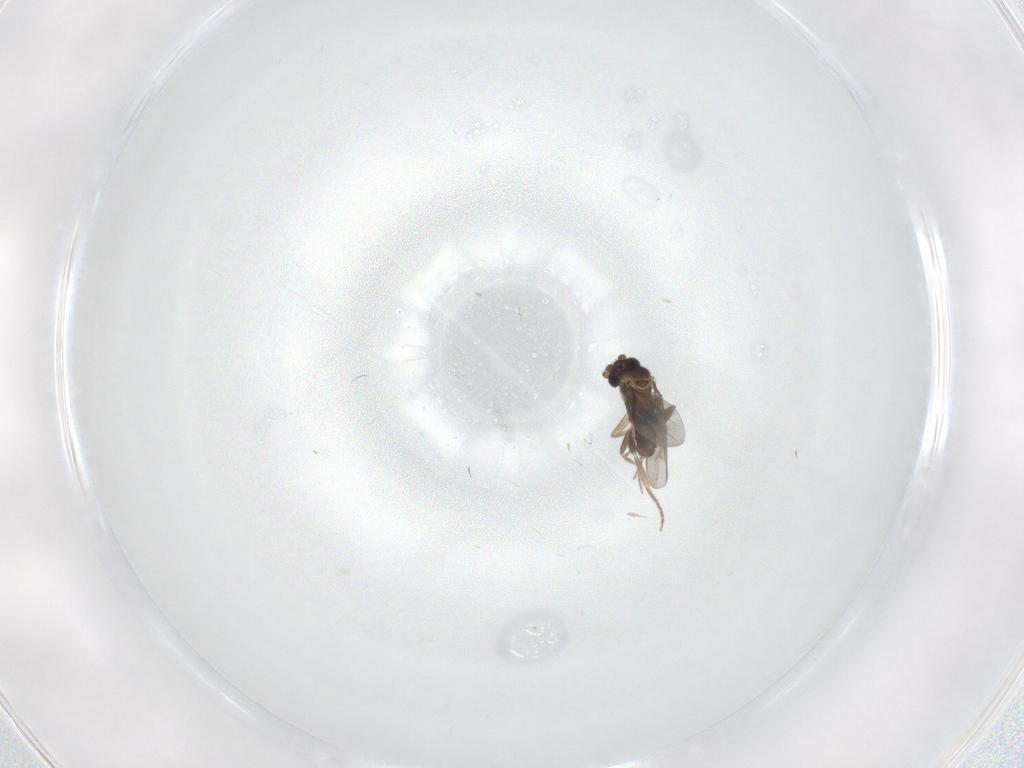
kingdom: Animalia
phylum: Arthropoda
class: Insecta
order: Diptera
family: Cecidomyiidae
